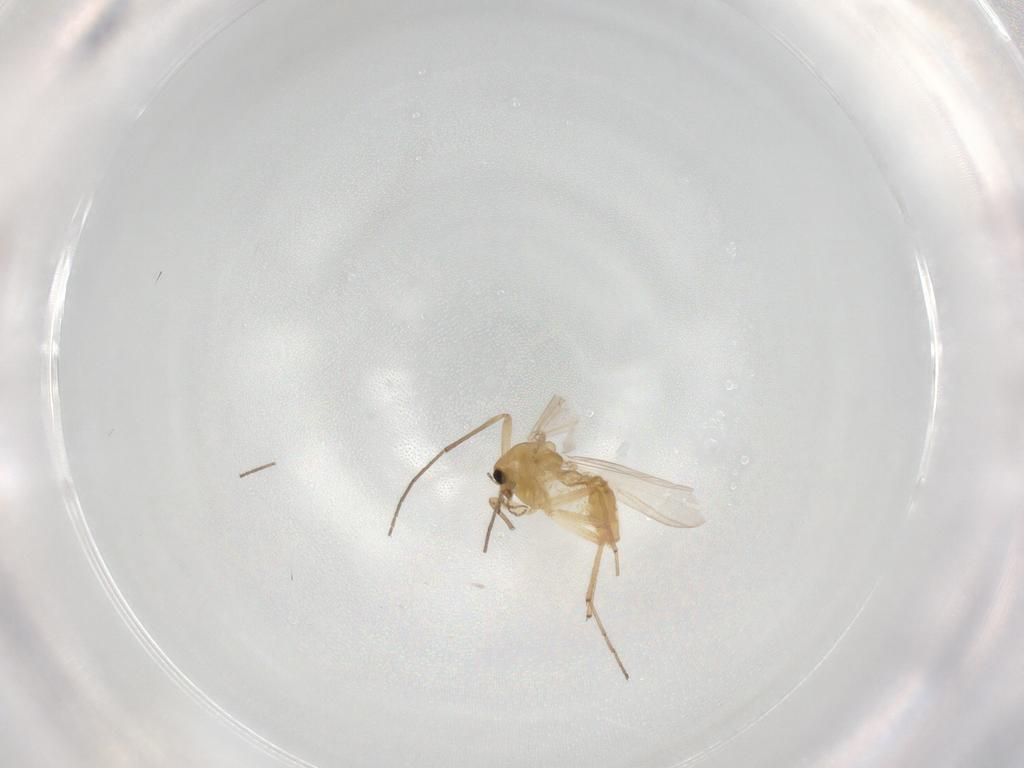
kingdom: Animalia
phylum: Arthropoda
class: Insecta
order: Diptera
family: Chironomidae
